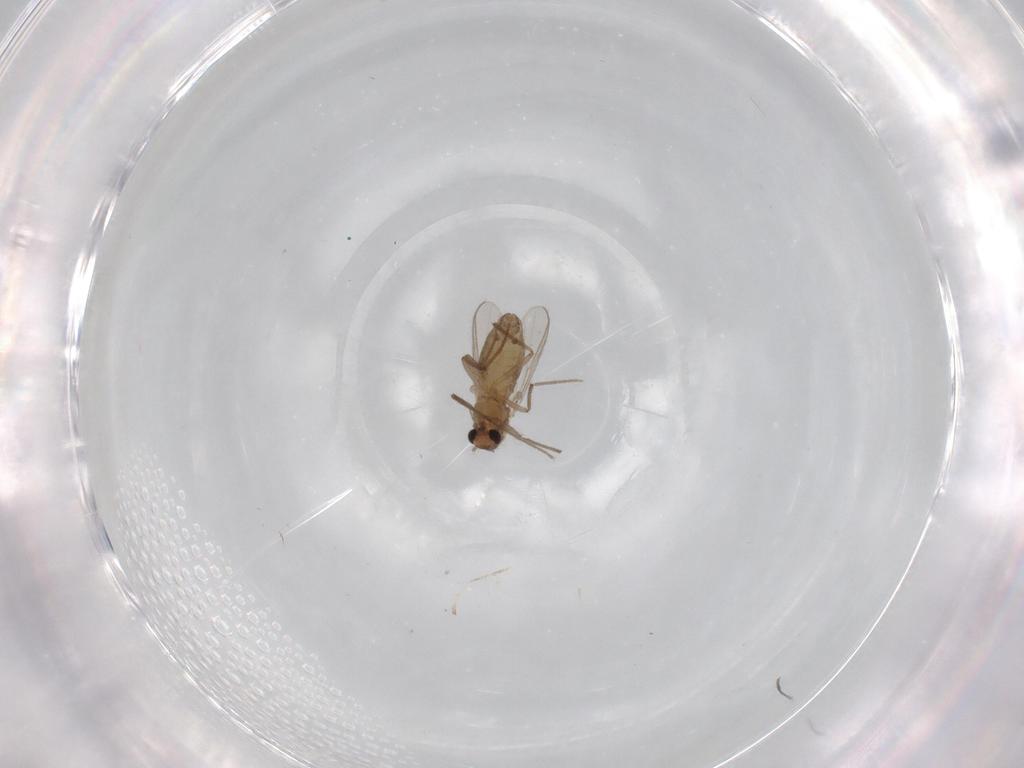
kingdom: Animalia
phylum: Arthropoda
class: Insecta
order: Diptera
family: Chironomidae
